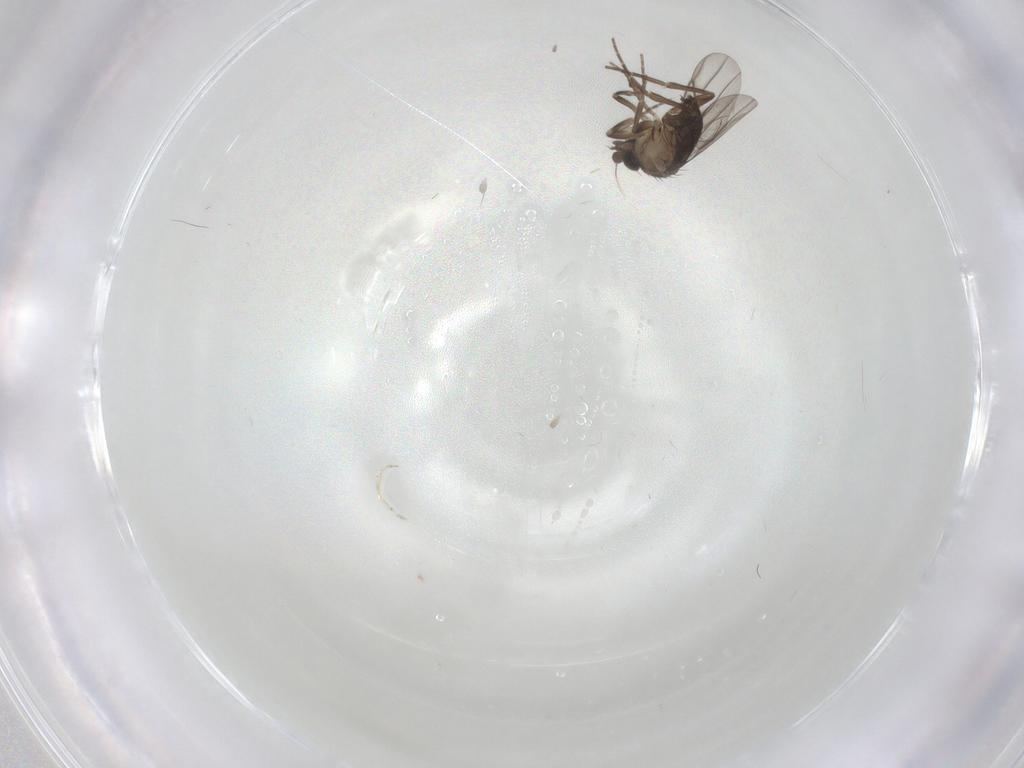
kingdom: Animalia
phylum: Arthropoda
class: Insecta
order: Diptera
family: Phoridae
